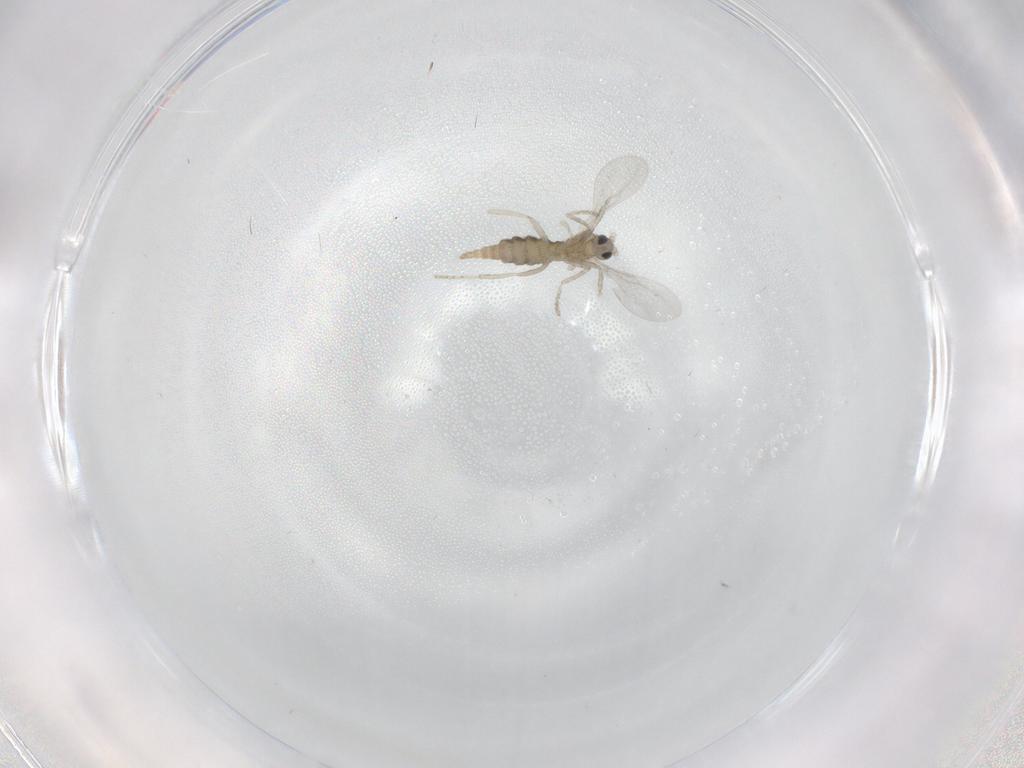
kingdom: Animalia
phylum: Arthropoda
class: Insecta
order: Diptera
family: Cecidomyiidae
